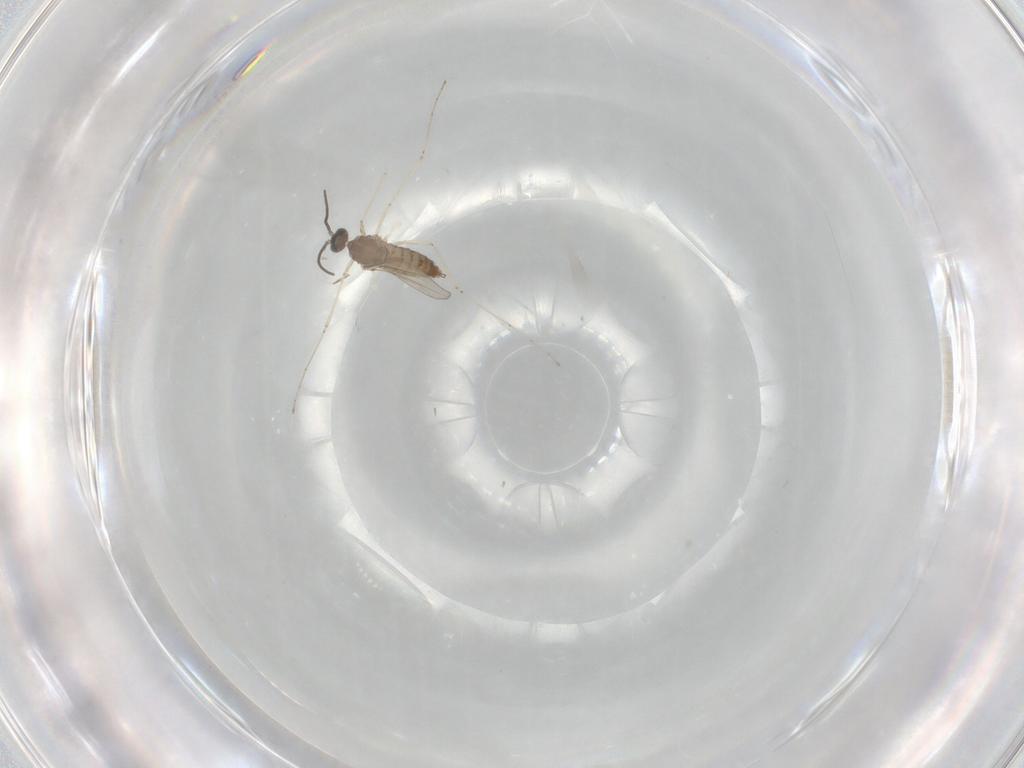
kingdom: Animalia
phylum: Arthropoda
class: Insecta
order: Diptera
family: Cecidomyiidae
